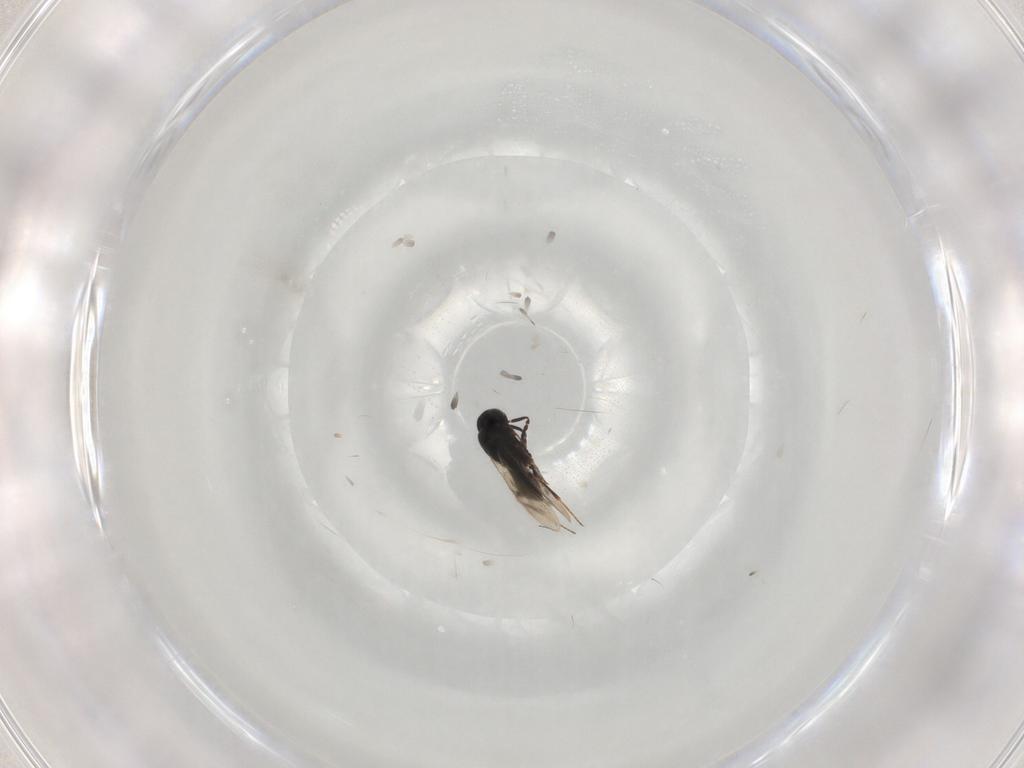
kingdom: Animalia
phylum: Arthropoda
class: Insecta
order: Hymenoptera
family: Scelionidae
